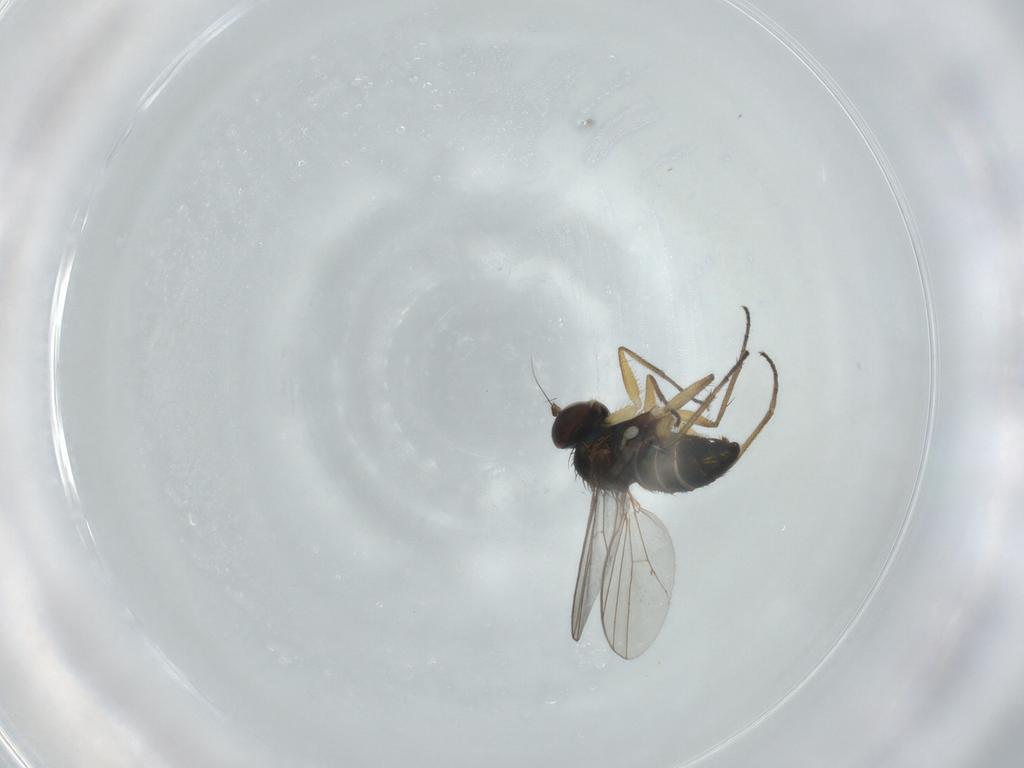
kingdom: Animalia
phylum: Arthropoda
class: Insecta
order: Diptera
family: Dolichopodidae
